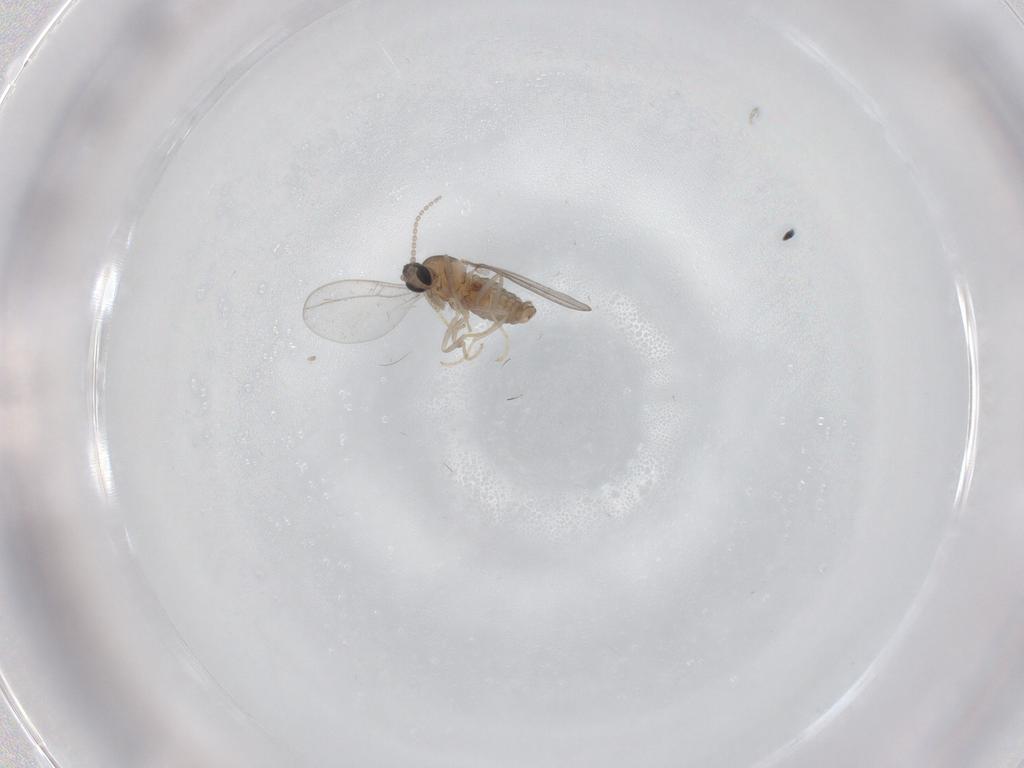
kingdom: Animalia
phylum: Arthropoda
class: Insecta
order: Diptera
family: Cecidomyiidae
